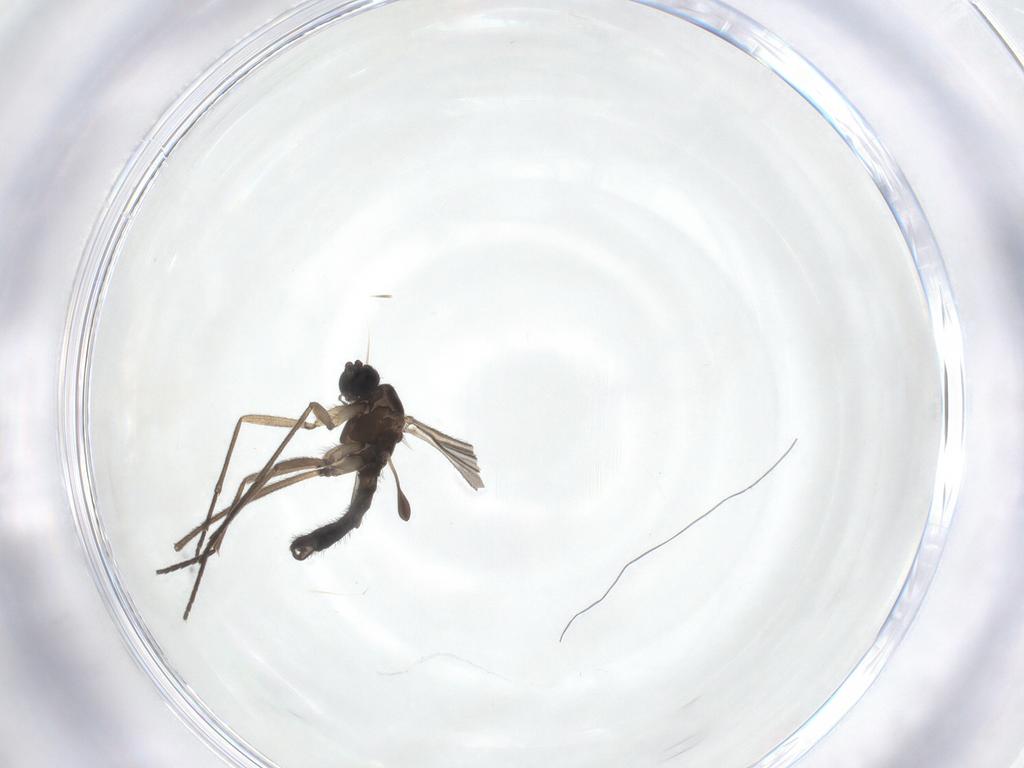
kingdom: Animalia
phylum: Arthropoda
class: Insecta
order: Diptera
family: Sciaridae
